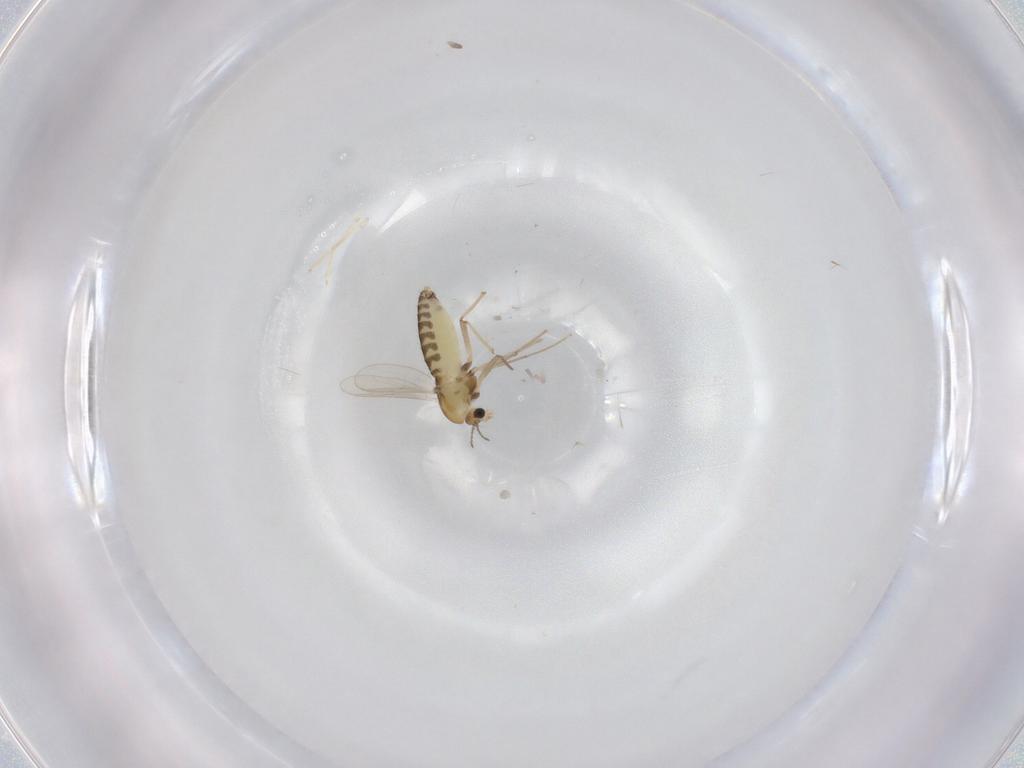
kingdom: Animalia
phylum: Arthropoda
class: Insecta
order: Diptera
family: Chironomidae
